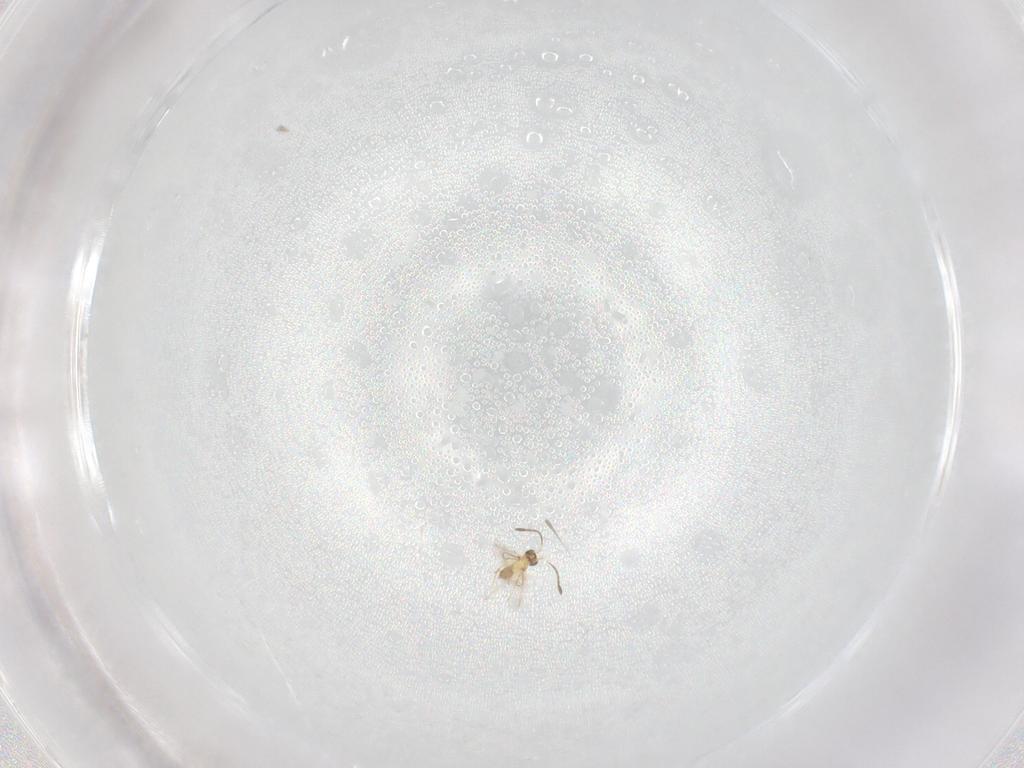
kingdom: Animalia
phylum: Arthropoda
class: Insecta
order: Hymenoptera
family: Mymaridae
